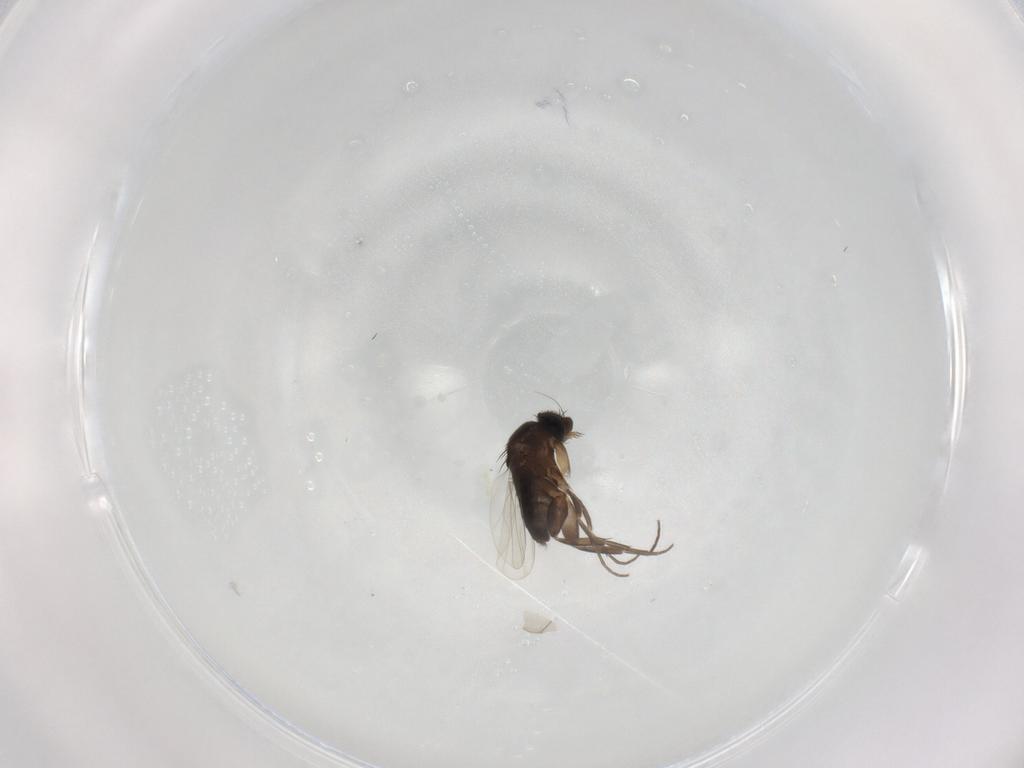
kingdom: Animalia
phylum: Arthropoda
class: Insecta
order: Diptera
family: Phoridae
